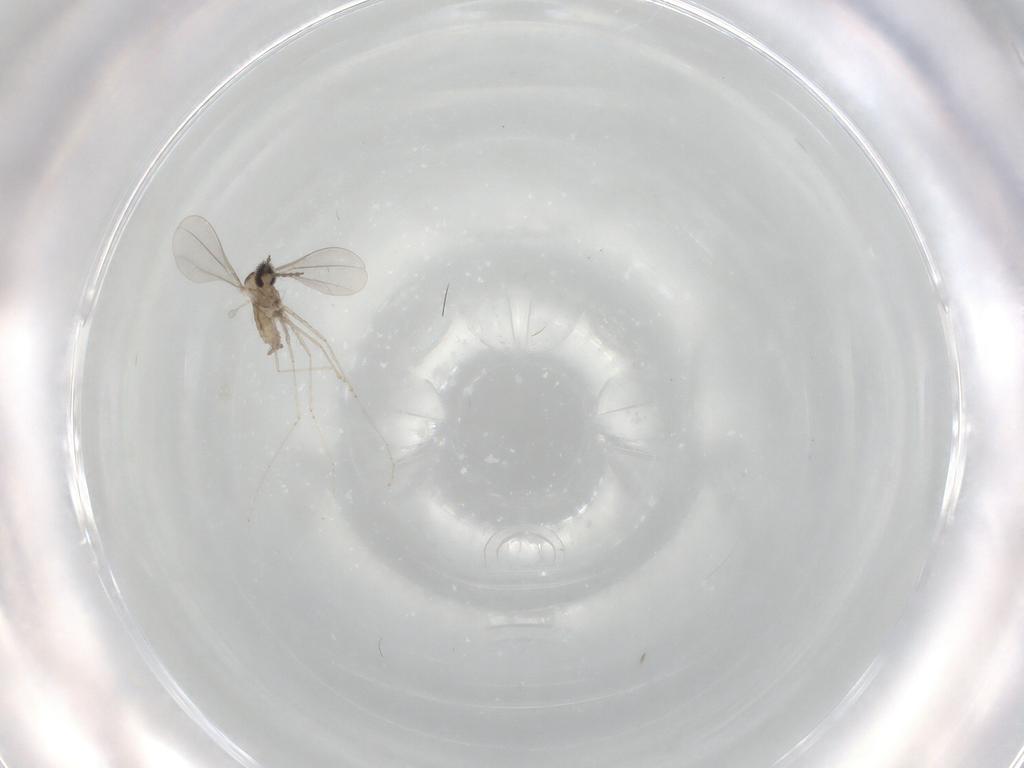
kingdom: Animalia
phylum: Arthropoda
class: Insecta
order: Diptera
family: Cecidomyiidae
